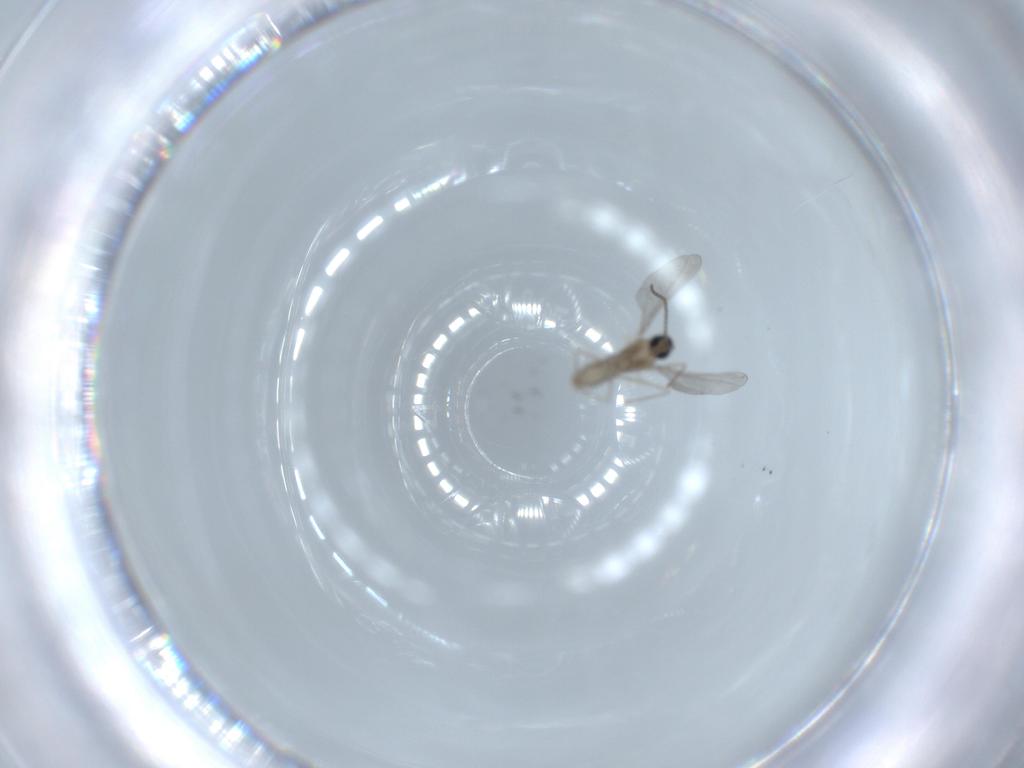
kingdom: Animalia
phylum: Arthropoda
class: Insecta
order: Diptera
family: Cecidomyiidae
